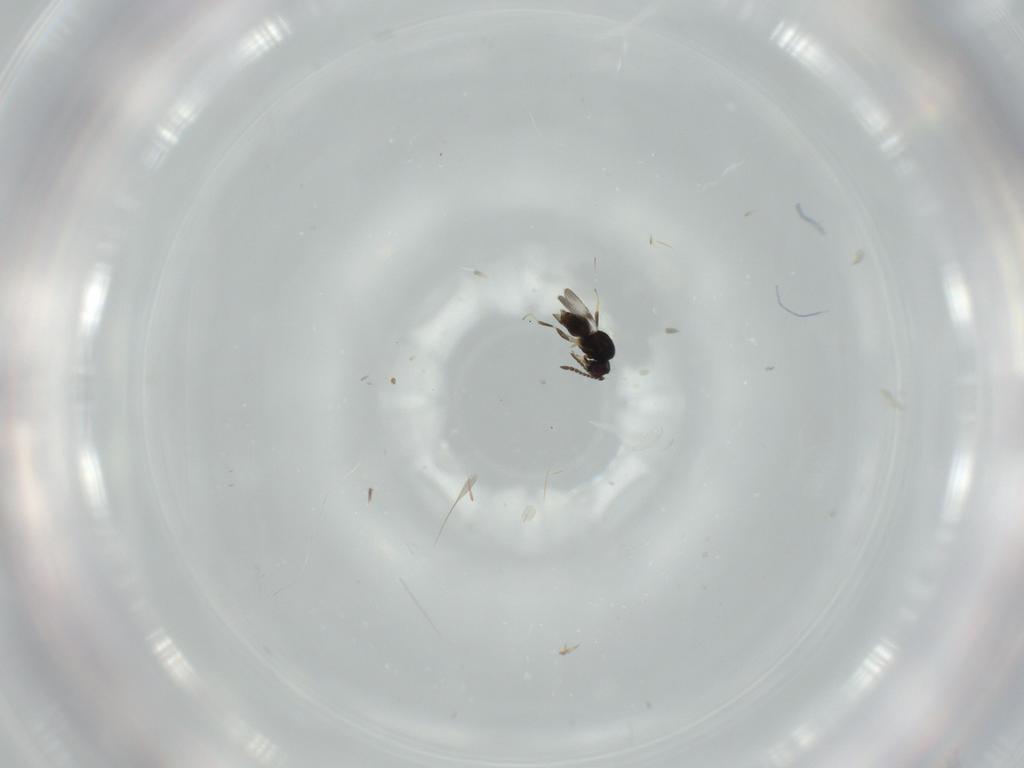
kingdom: Animalia
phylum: Arthropoda
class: Insecta
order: Hymenoptera
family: Ceraphronidae
